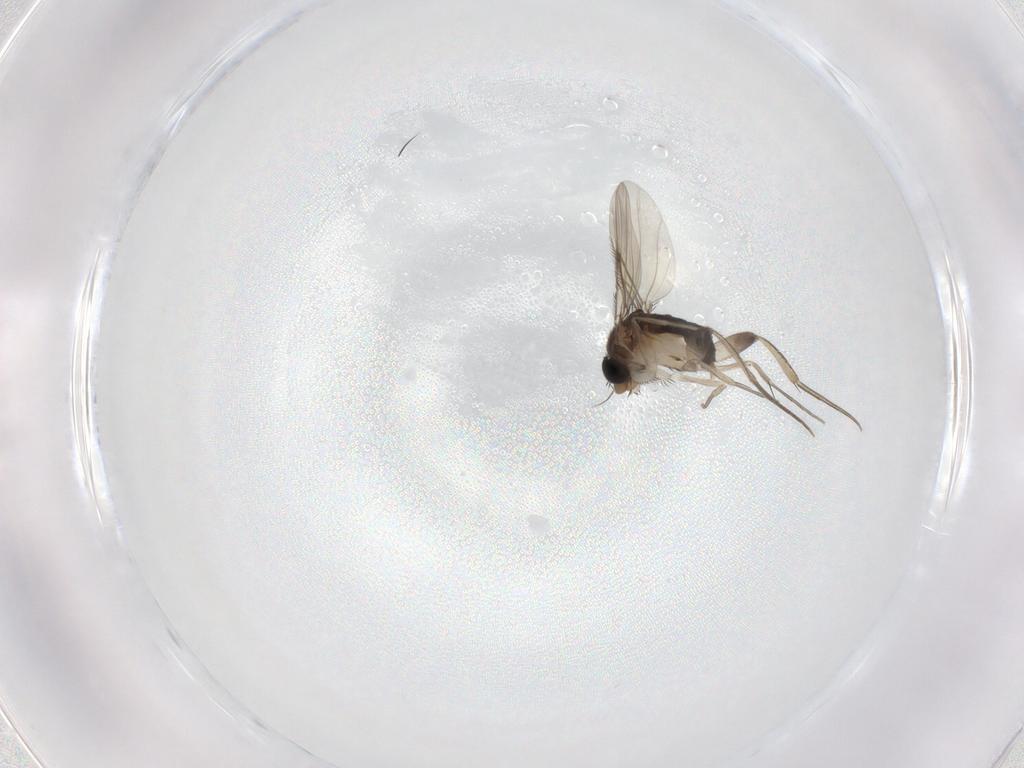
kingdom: Animalia
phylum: Arthropoda
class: Insecta
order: Diptera
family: Phoridae
